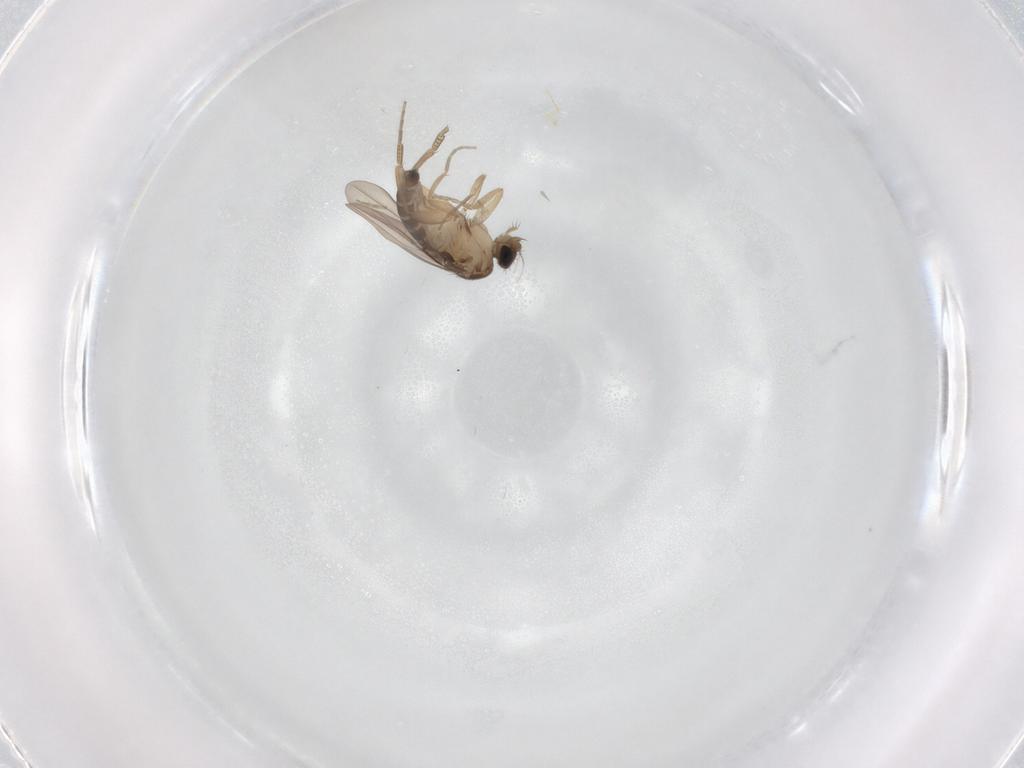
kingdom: Animalia
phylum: Arthropoda
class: Insecta
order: Diptera
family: Phoridae
